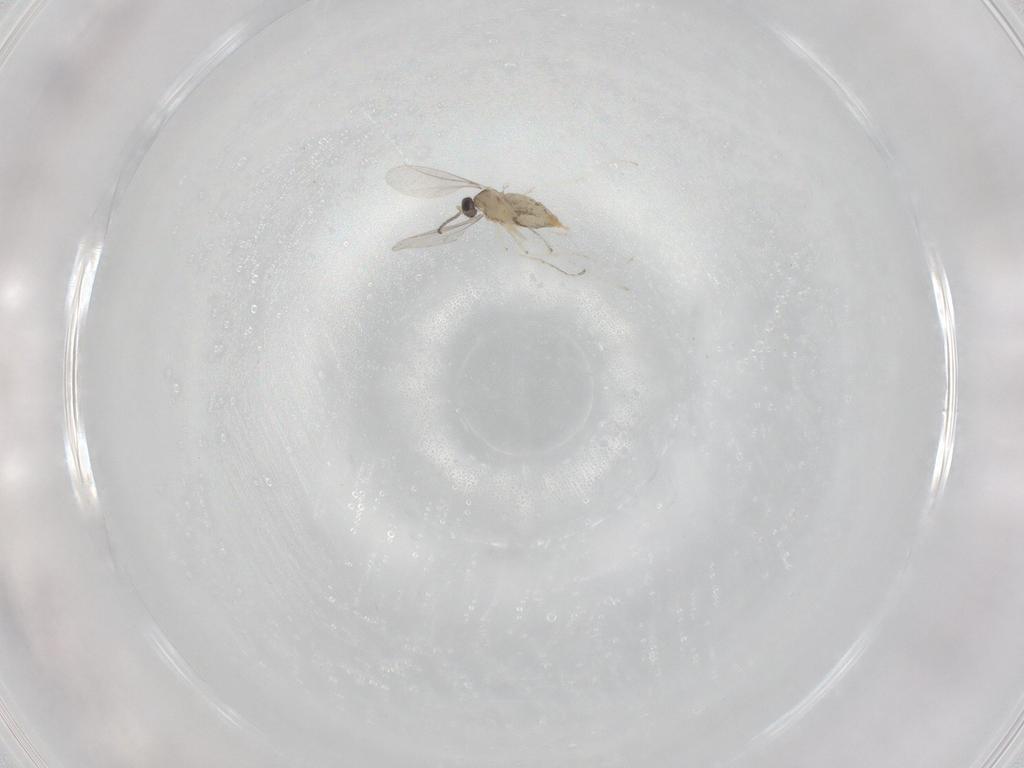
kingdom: Animalia
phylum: Arthropoda
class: Insecta
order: Diptera
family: Cecidomyiidae
